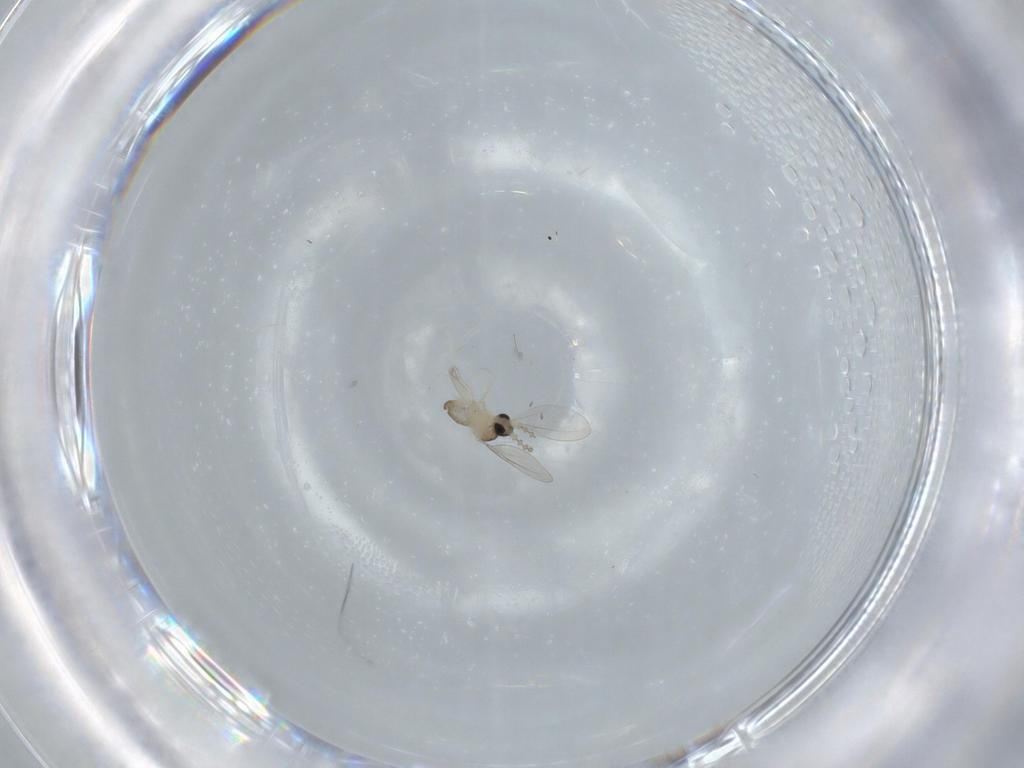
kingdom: Animalia
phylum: Arthropoda
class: Insecta
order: Diptera
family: Cecidomyiidae
